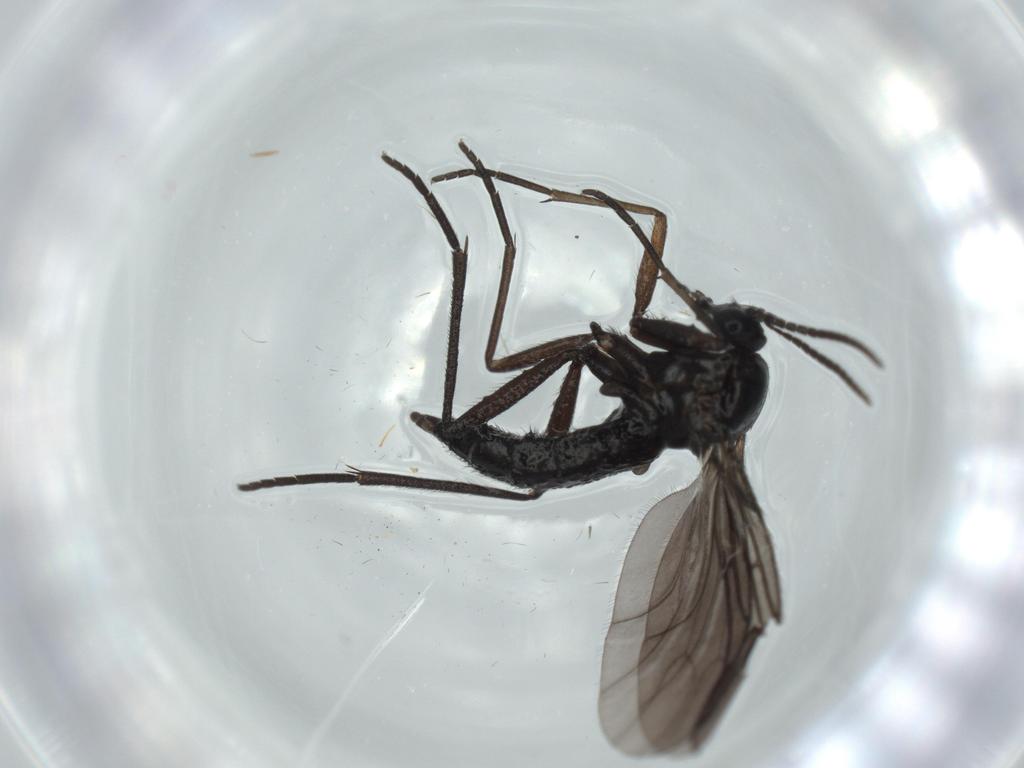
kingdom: Animalia
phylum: Arthropoda
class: Insecta
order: Diptera
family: Sciaridae
